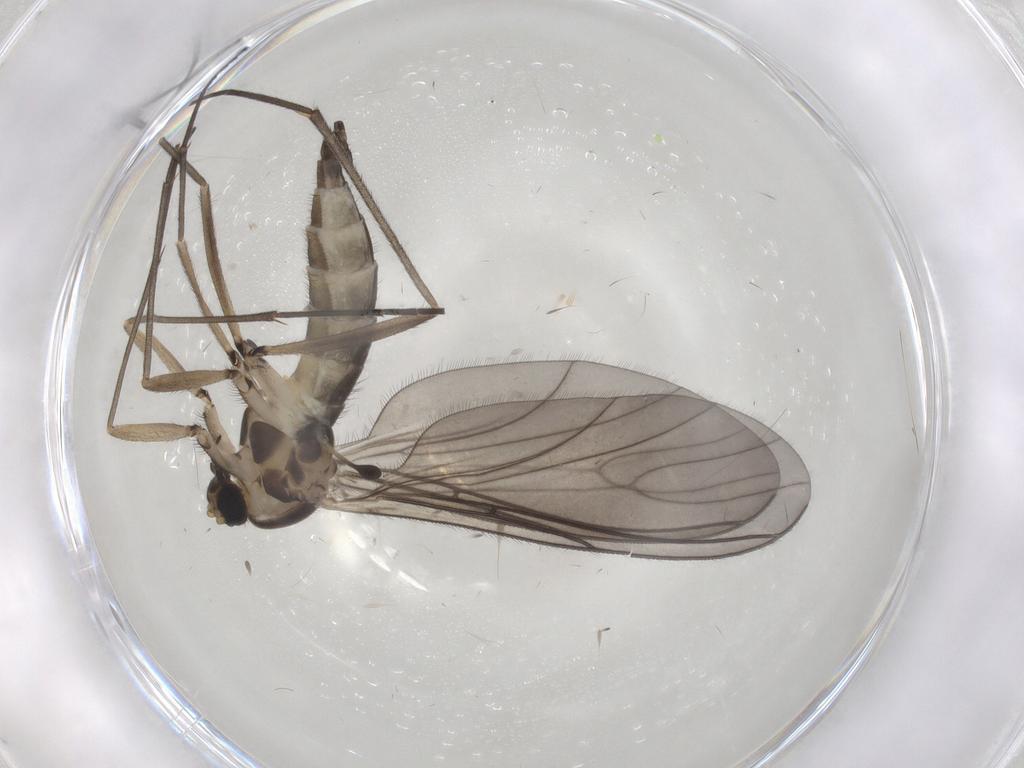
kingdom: Animalia
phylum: Arthropoda
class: Insecta
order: Diptera
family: Sciaridae
